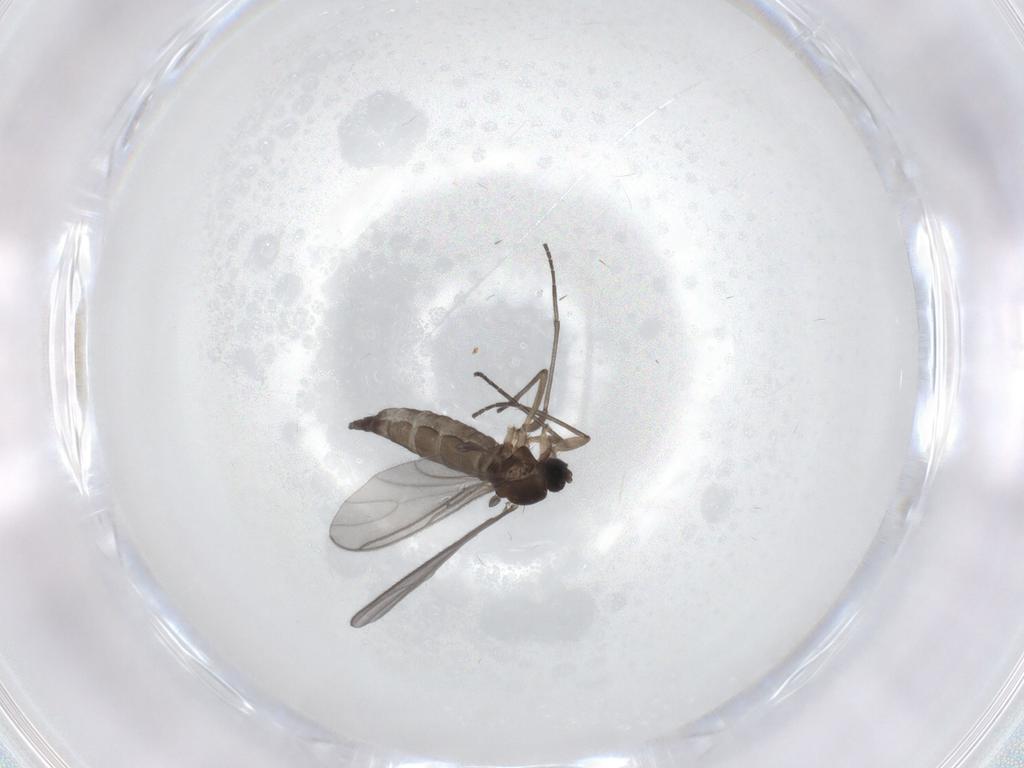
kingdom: Animalia
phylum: Arthropoda
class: Insecta
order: Diptera
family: Sciaridae
